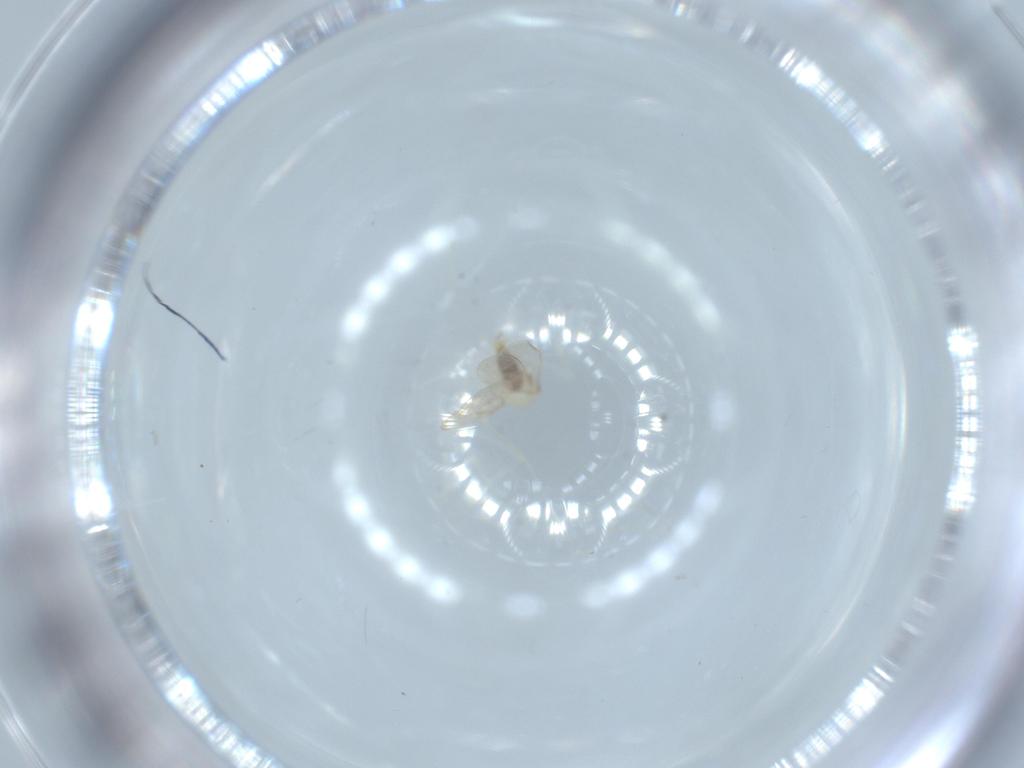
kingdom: Animalia
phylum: Arthropoda
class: Insecta
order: Diptera
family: Cecidomyiidae
